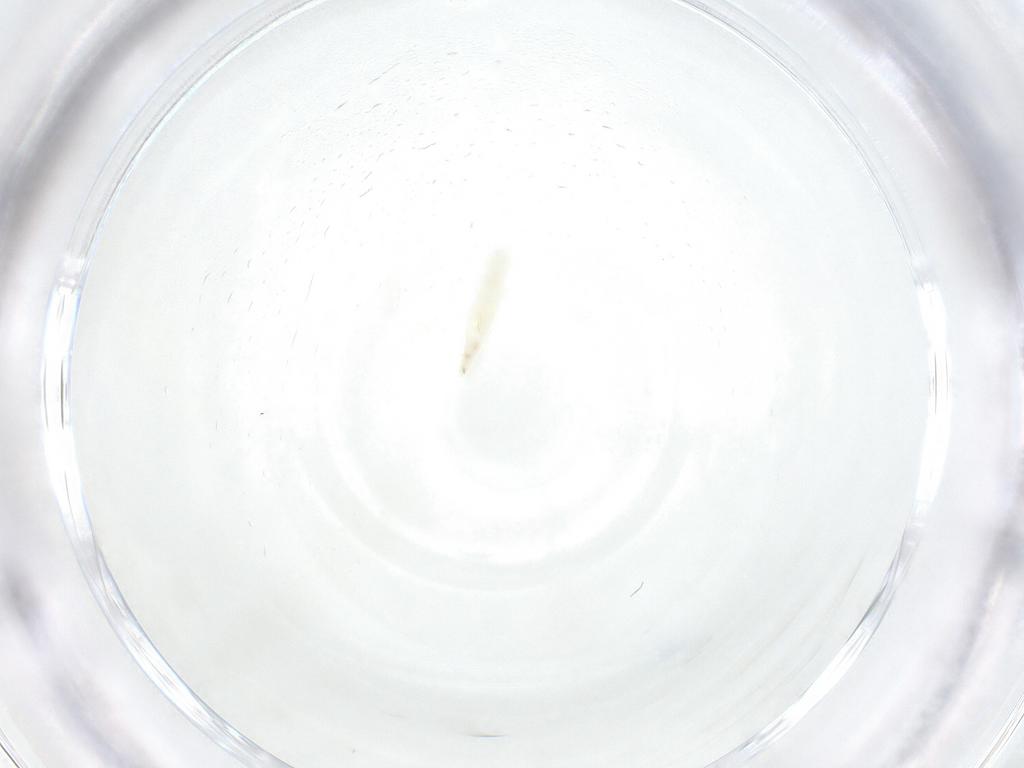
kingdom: Animalia
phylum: Arthropoda
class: Insecta
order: Diptera
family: Sarcophagidae
